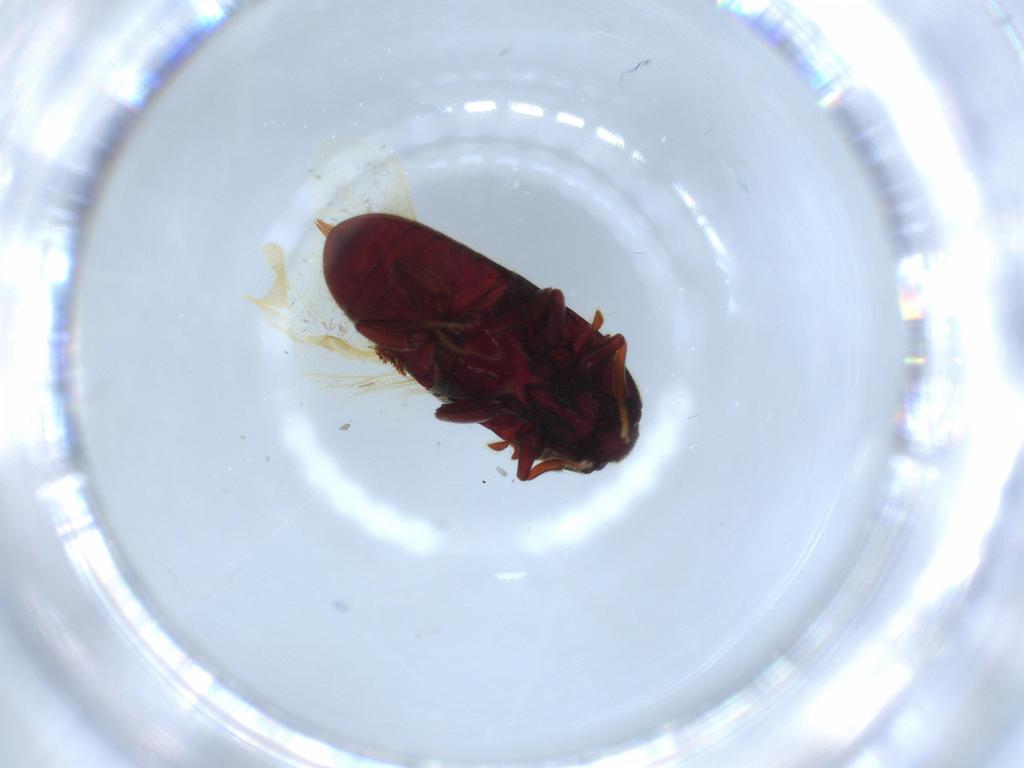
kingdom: Animalia
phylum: Arthropoda
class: Insecta
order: Coleoptera
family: Throscidae
